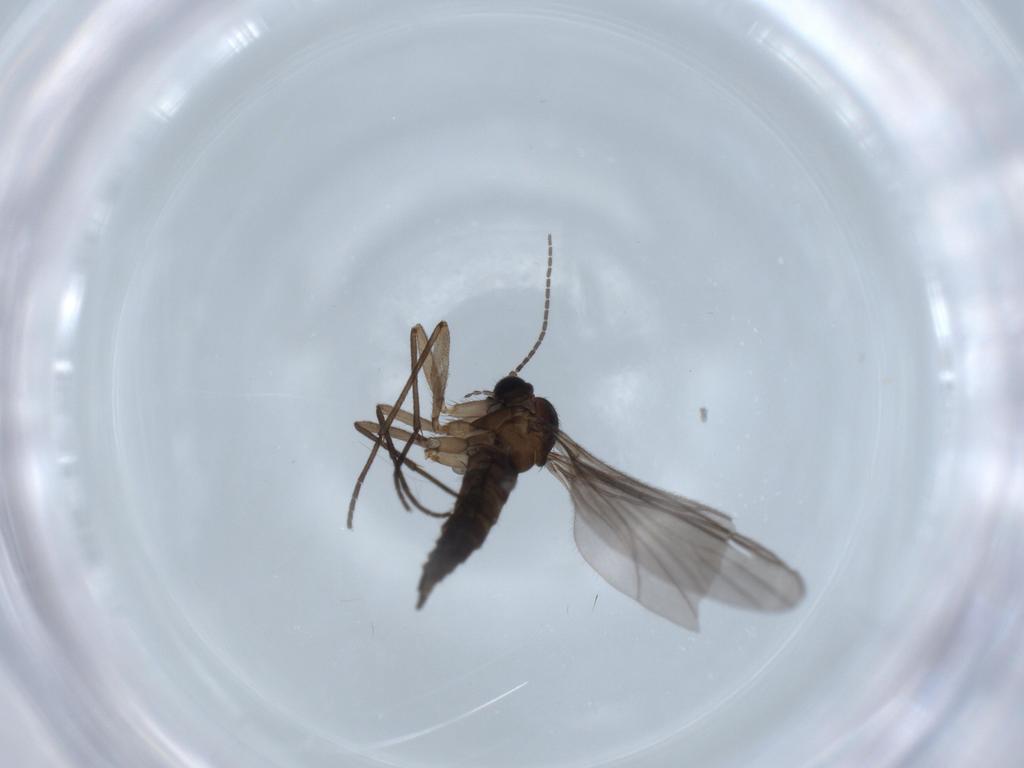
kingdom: Animalia
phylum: Arthropoda
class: Insecta
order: Diptera
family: Sciaridae
